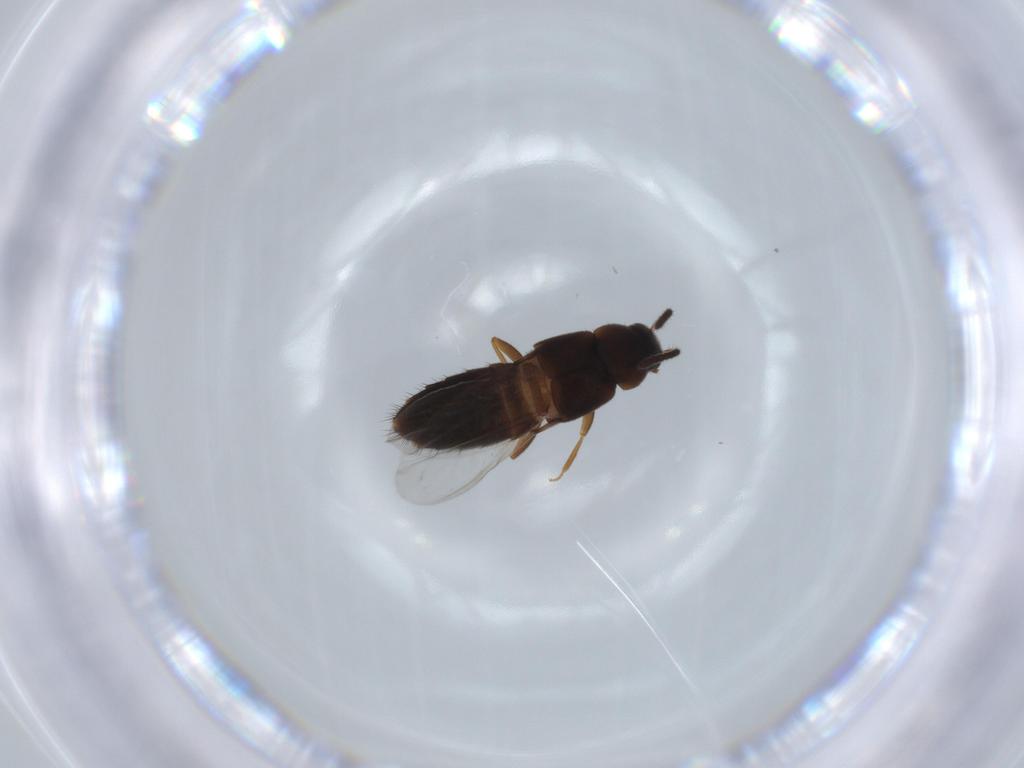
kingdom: Animalia
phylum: Arthropoda
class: Insecta
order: Coleoptera
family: Staphylinidae
